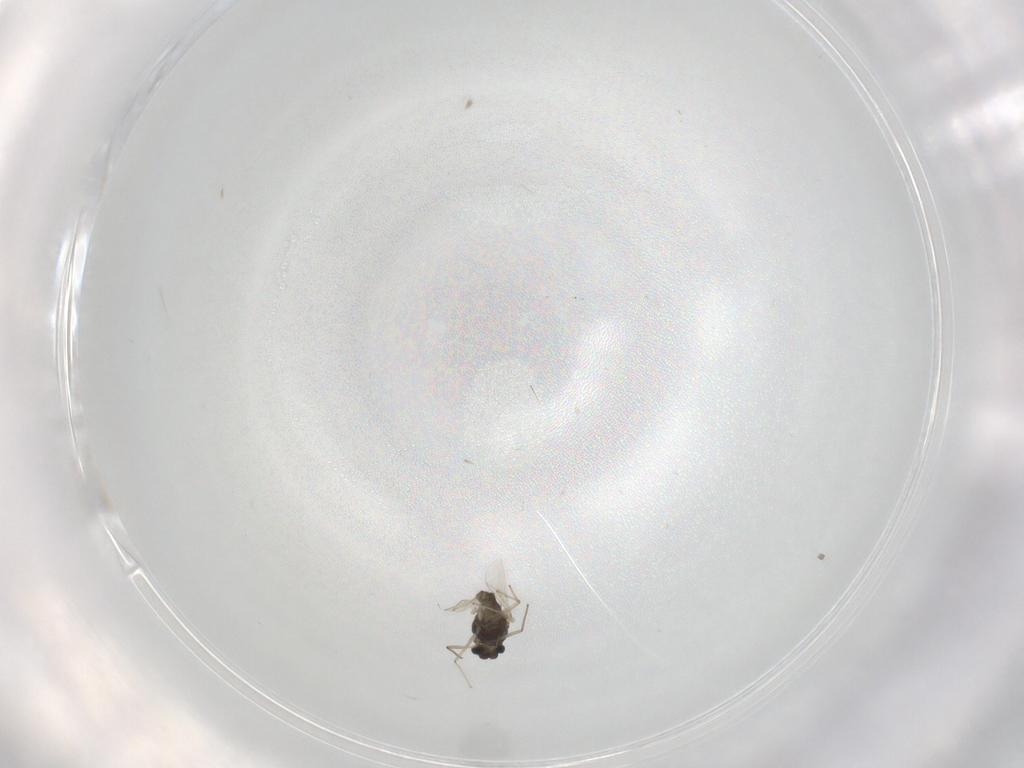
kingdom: Animalia
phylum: Arthropoda
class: Insecta
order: Diptera
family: Chironomidae
